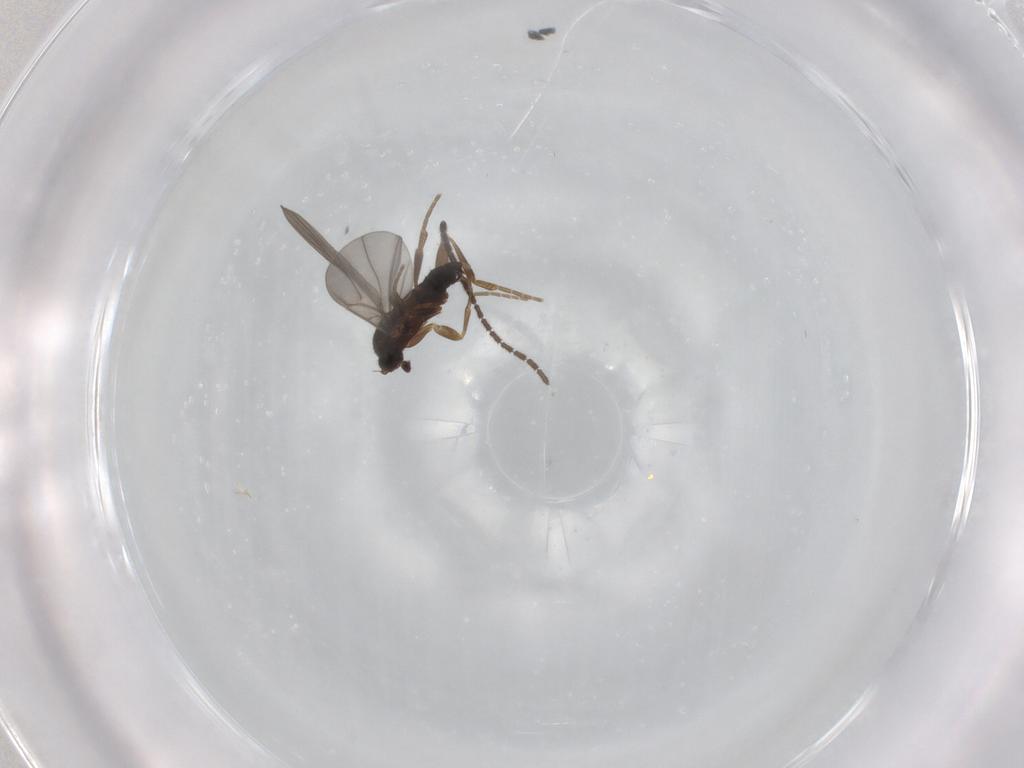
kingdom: Animalia
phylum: Arthropoda
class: Insecta
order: Diptera
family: Sciaridae
